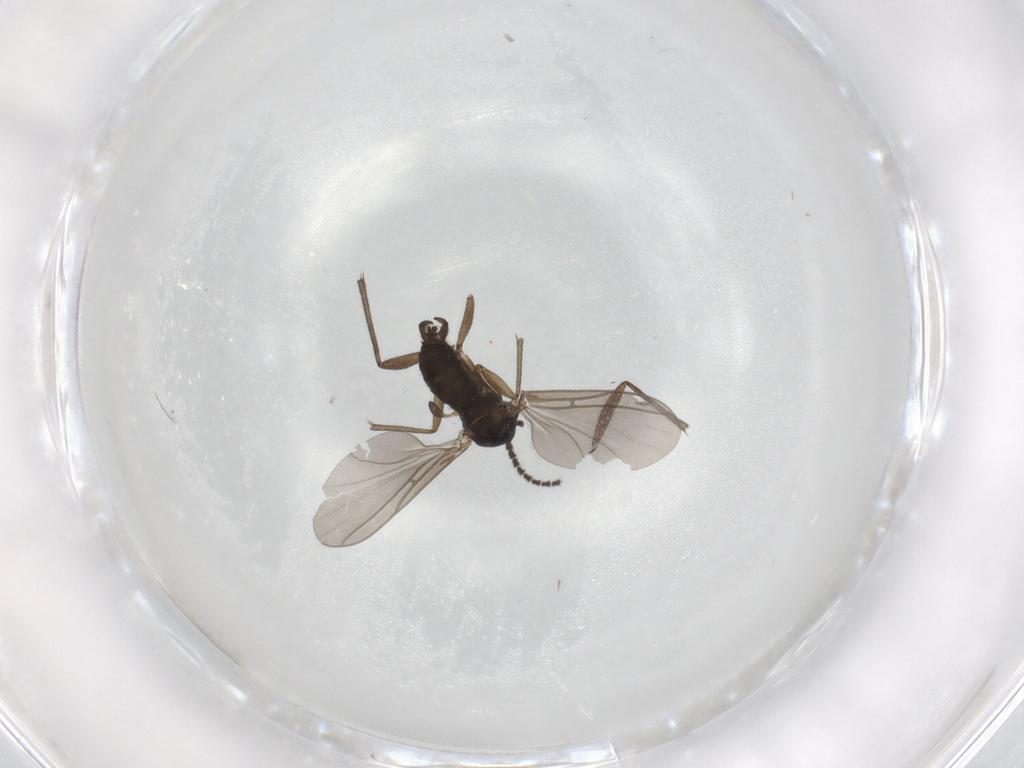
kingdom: Animalia
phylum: Arthropoda
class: Insecta
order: Diptera
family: Sciaridae
